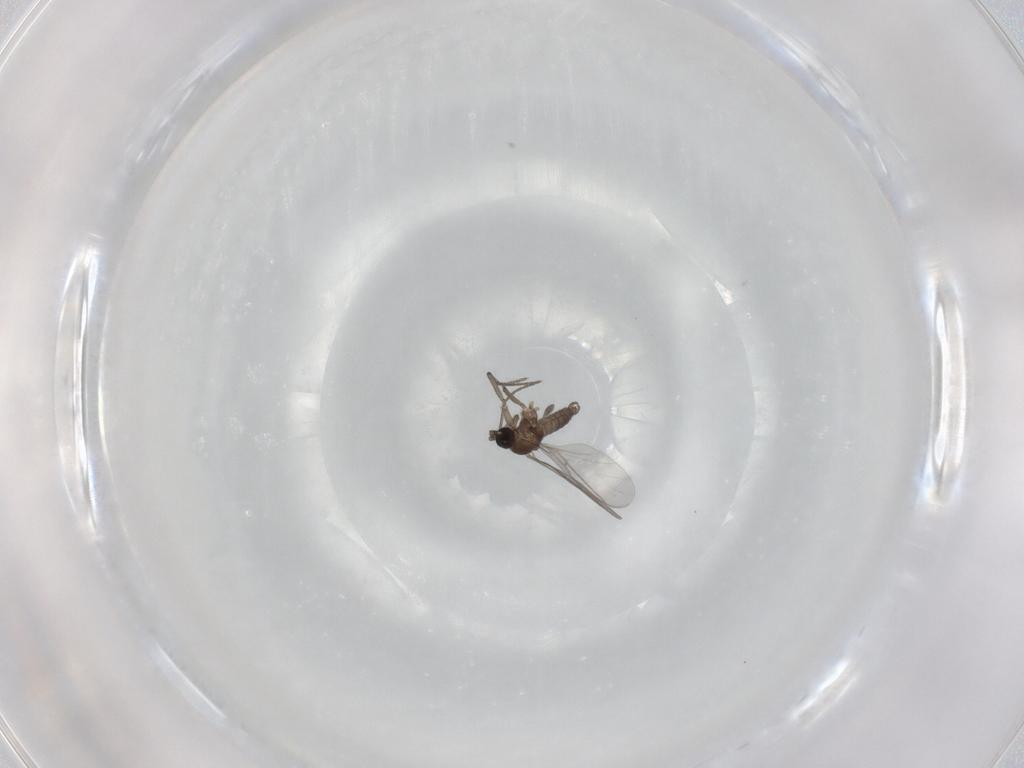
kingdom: Animalia
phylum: Arthropoda
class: Insecta
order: Diptera
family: Sciaridae
